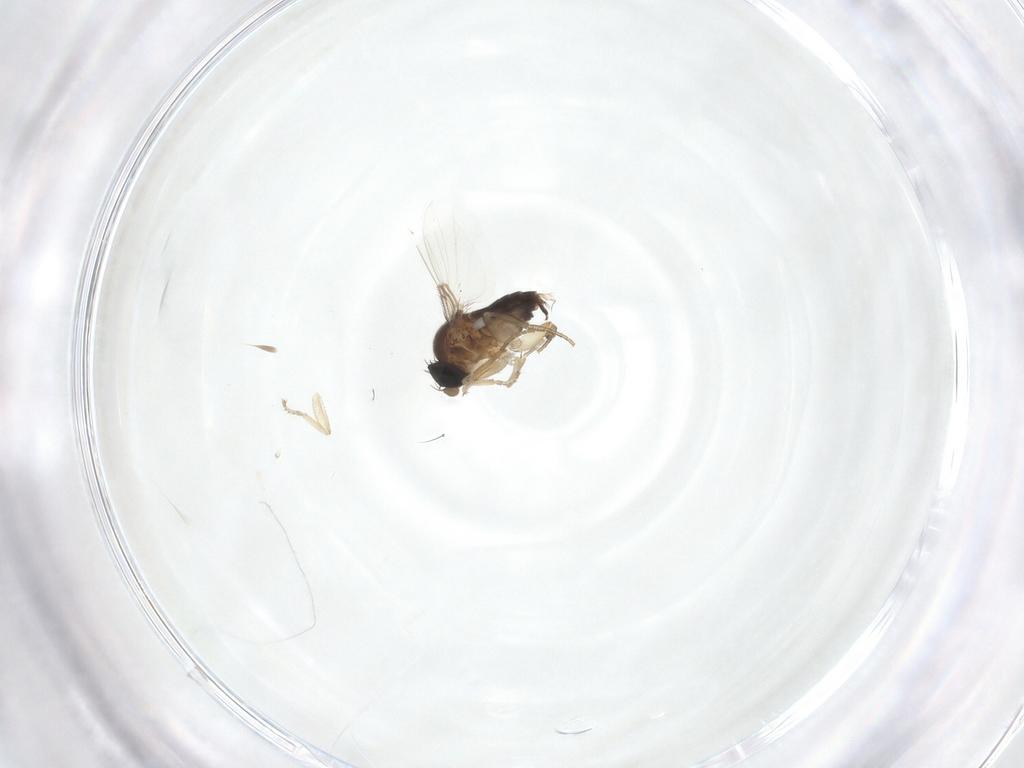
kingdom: Animalia
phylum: Arthropoda
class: Insecta
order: Diptera
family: Phoridae
